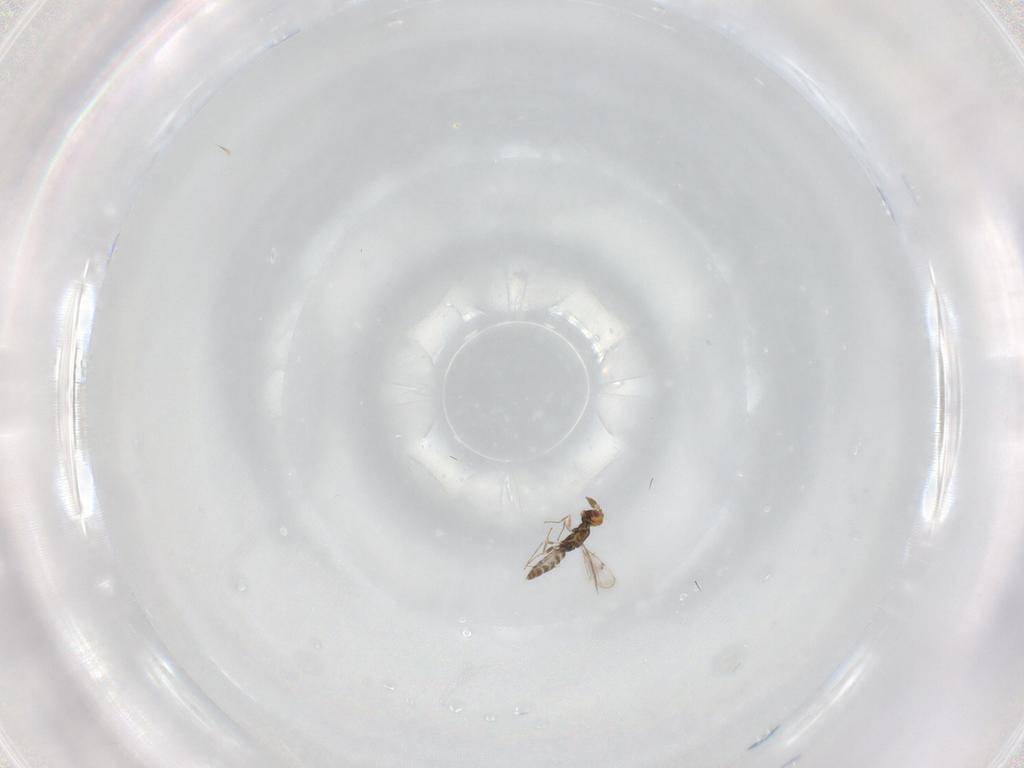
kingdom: Animalia
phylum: Arthropoda
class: Insecta
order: Hymenoptera
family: Eulophidae
